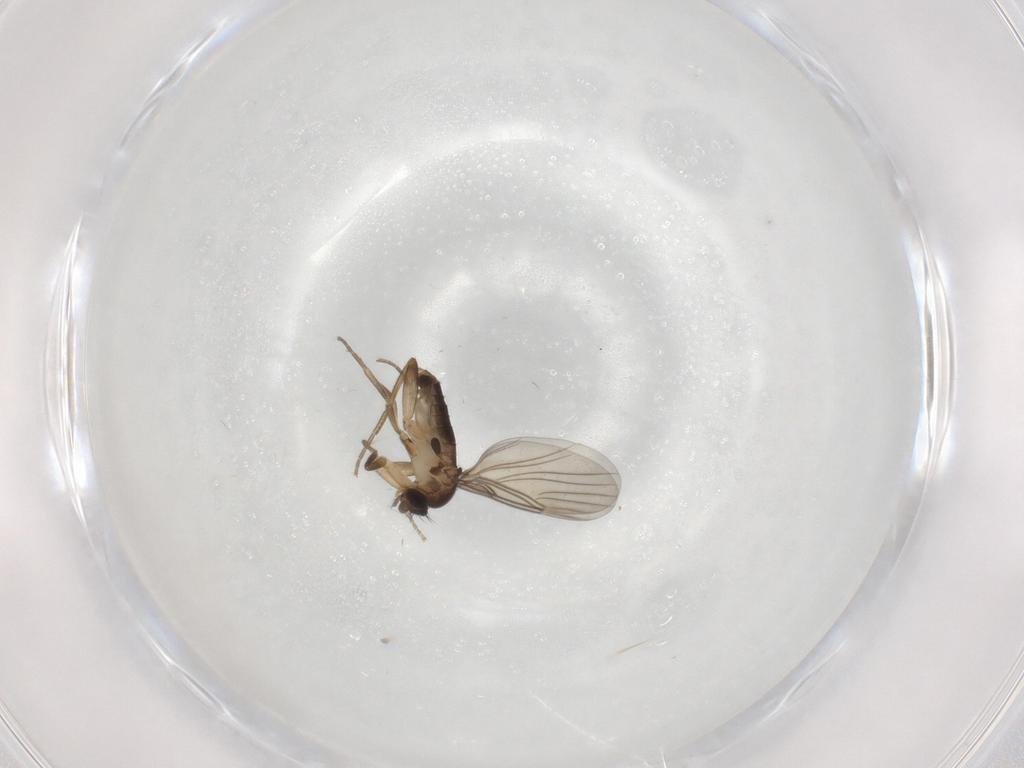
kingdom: Animalia
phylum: Arthropoda
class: Insecta
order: Diptera
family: Phoridae
